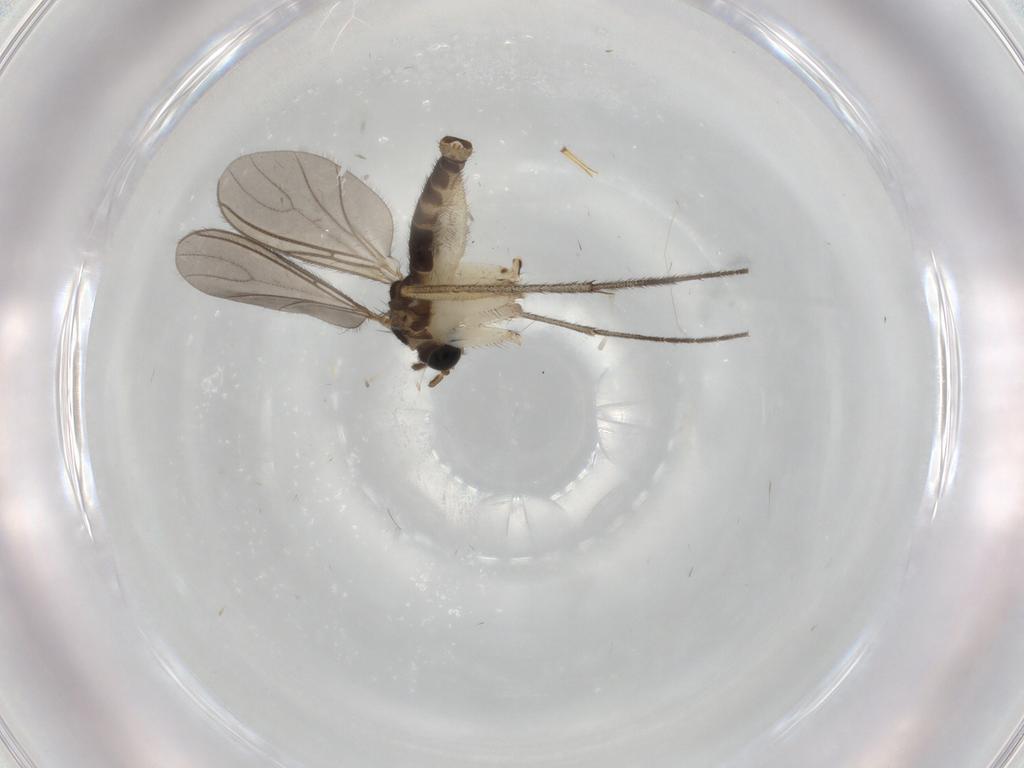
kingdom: Animalia
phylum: Arthropoda
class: Insecta
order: Diptera
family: Sciaridae
